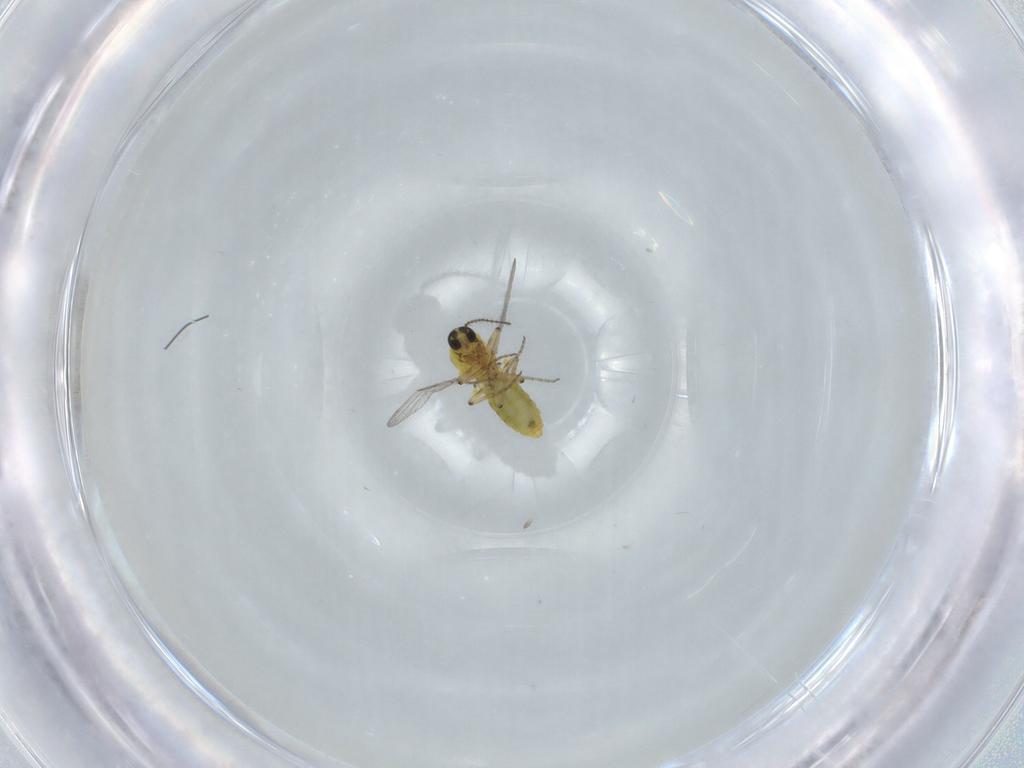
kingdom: Animalia
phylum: Arthropoda
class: Insecta
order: Diptera
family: Ceratopogonidae
